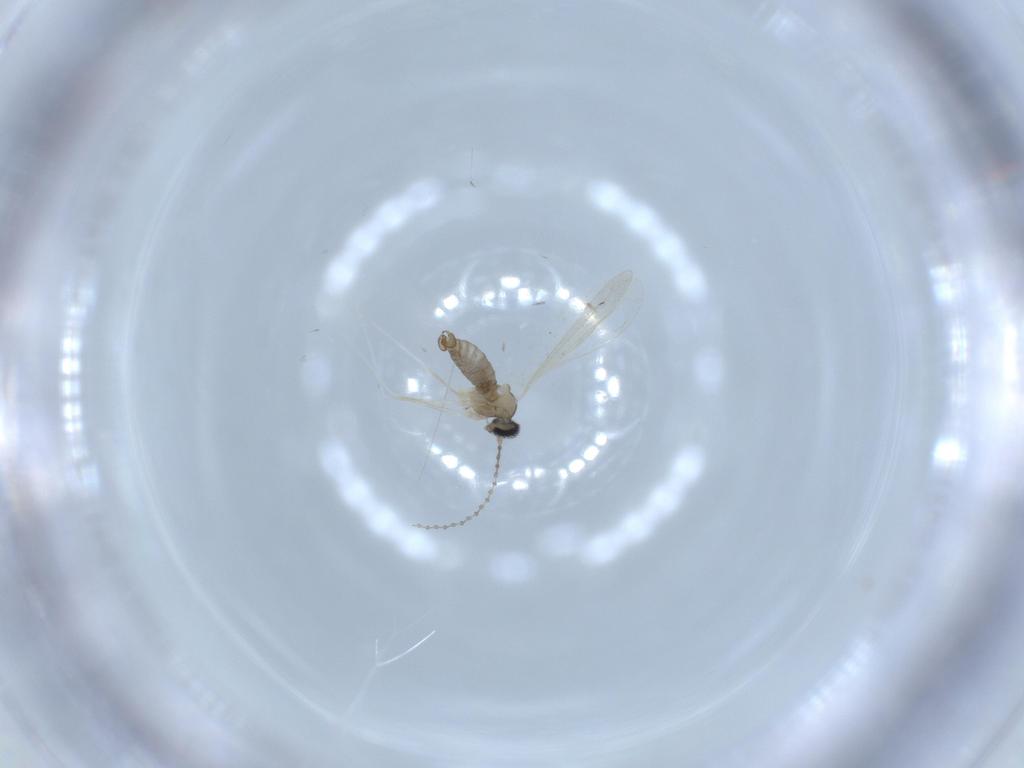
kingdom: Animalia
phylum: Arthropoda
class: Insecta
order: Diptera
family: Cecidomyiidae
